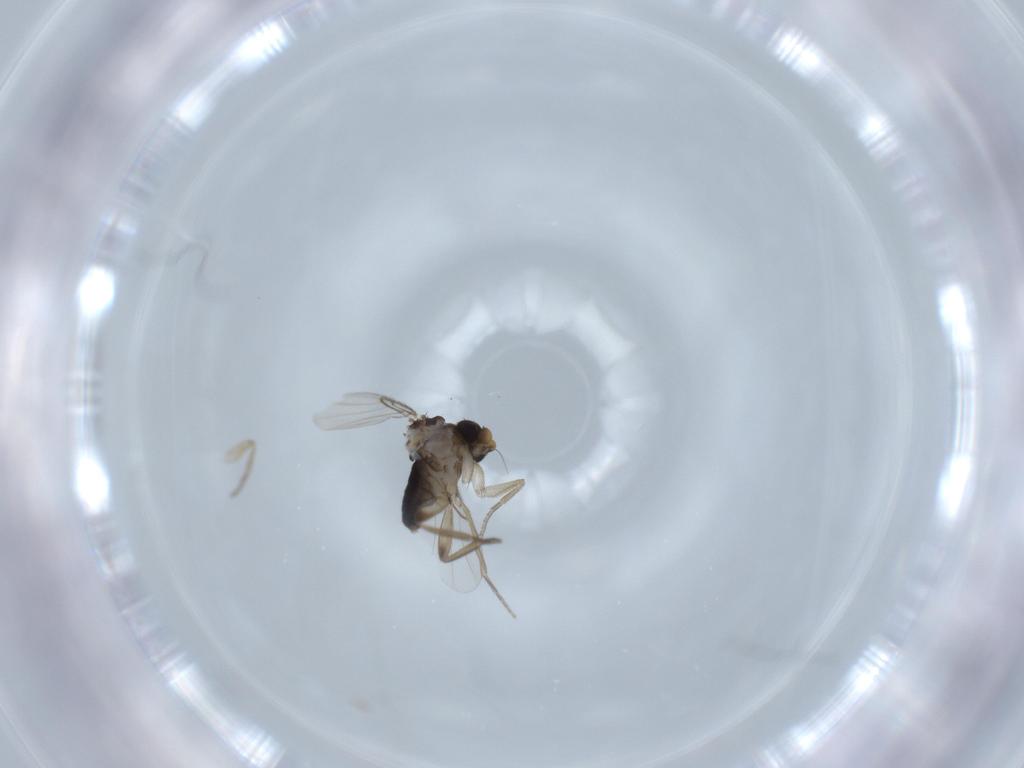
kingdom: Animalia
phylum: Arthropoda
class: Insecta
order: Diptera
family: Phoridae
